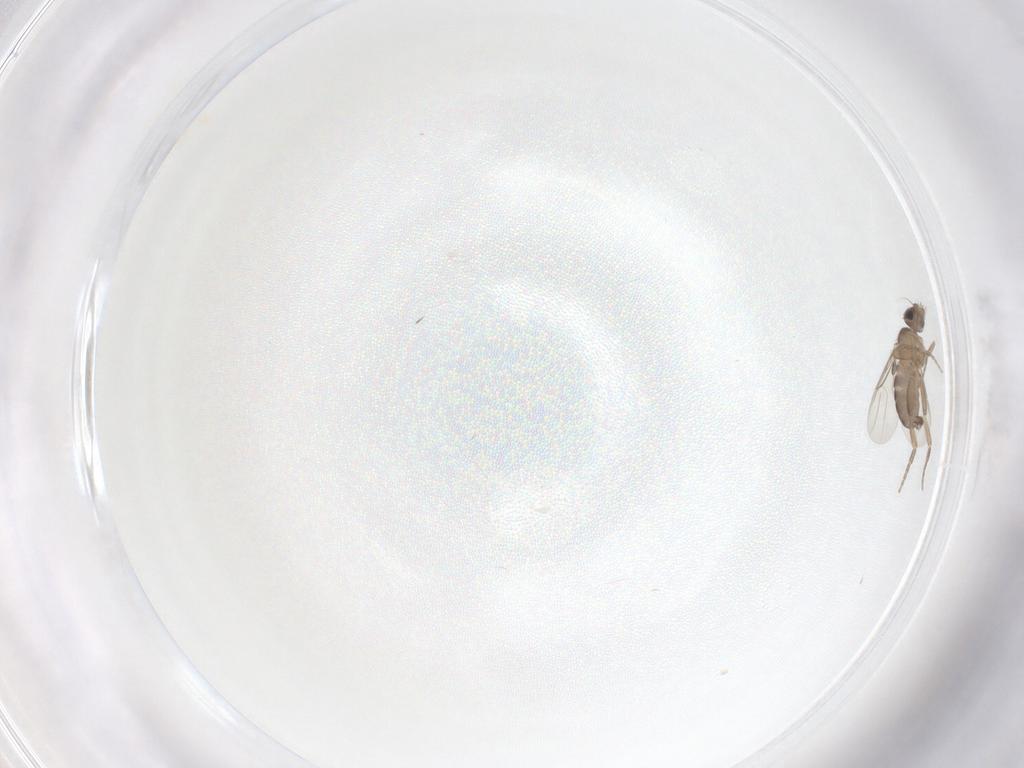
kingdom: Animalia
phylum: Arthropoda
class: Insecta
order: Diptera
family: Phoridae
